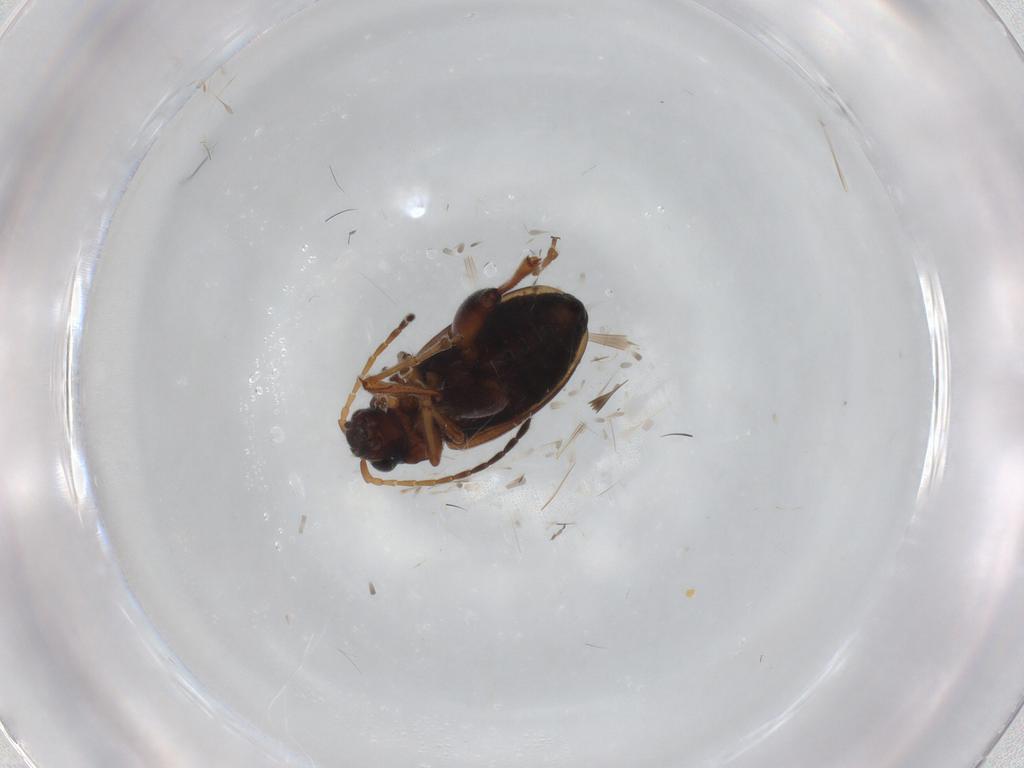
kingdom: Animalia
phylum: Arthropoda
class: Insecta
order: Coleoptera
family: Chrysomelidae
